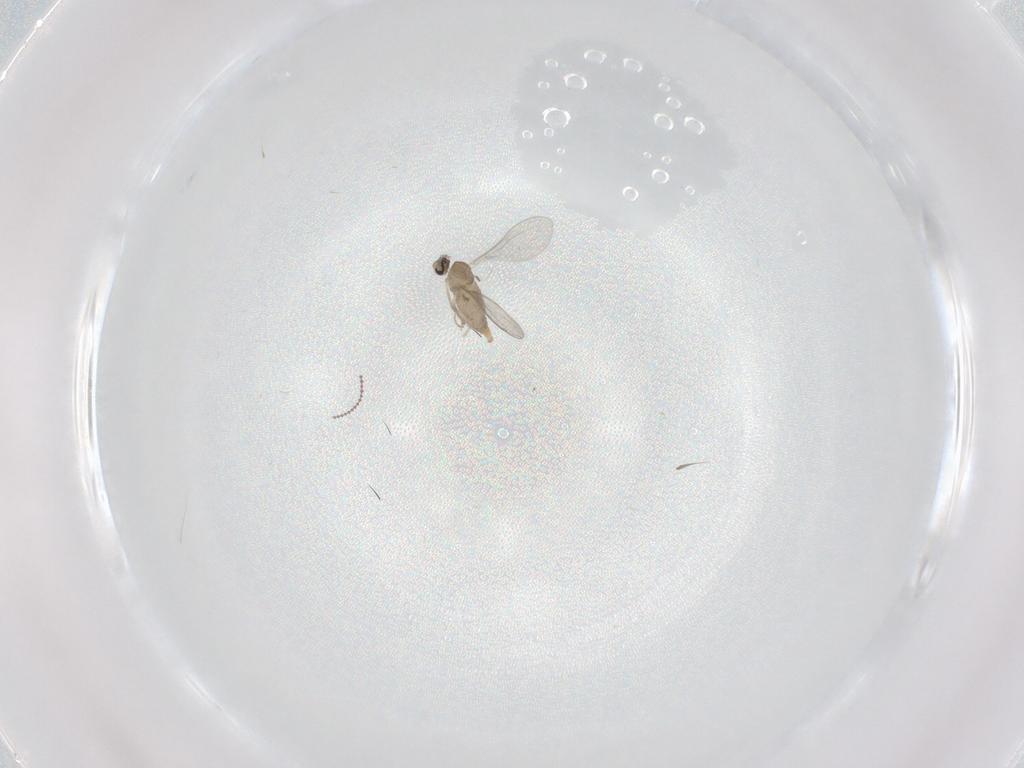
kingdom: Animalia
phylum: Arthropoda
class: Insecta
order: Diptera
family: Cecidomyiidae
